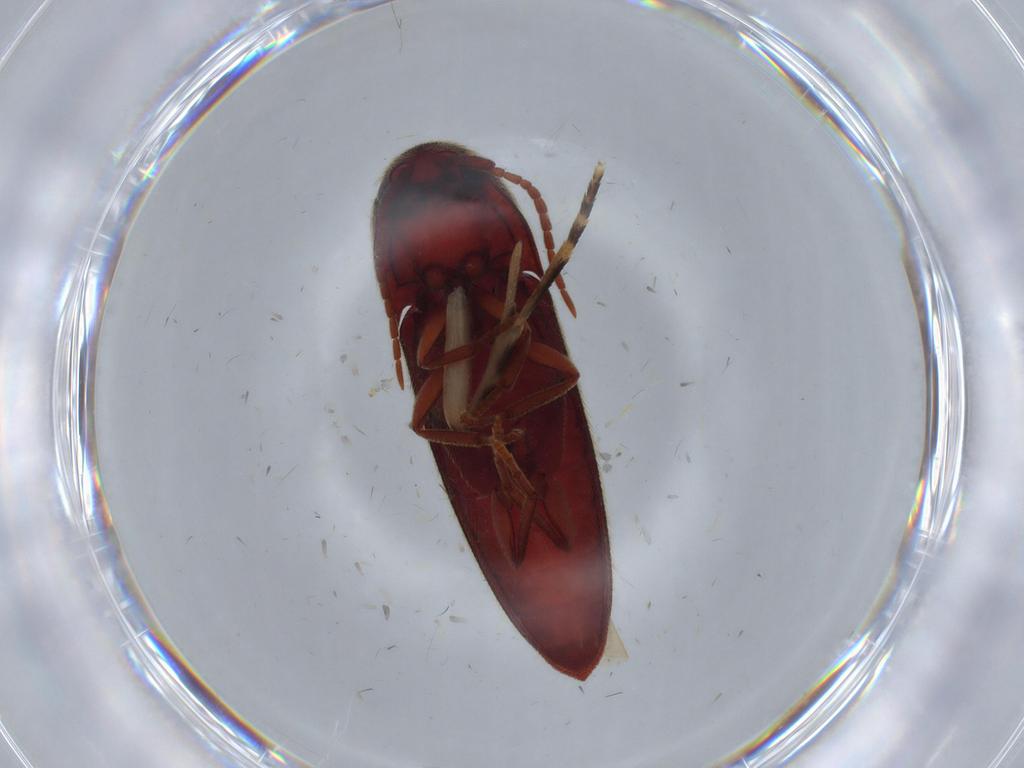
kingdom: Animalia
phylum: Arthropoda
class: Insecta
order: Coleoptera
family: Eucnemidae
